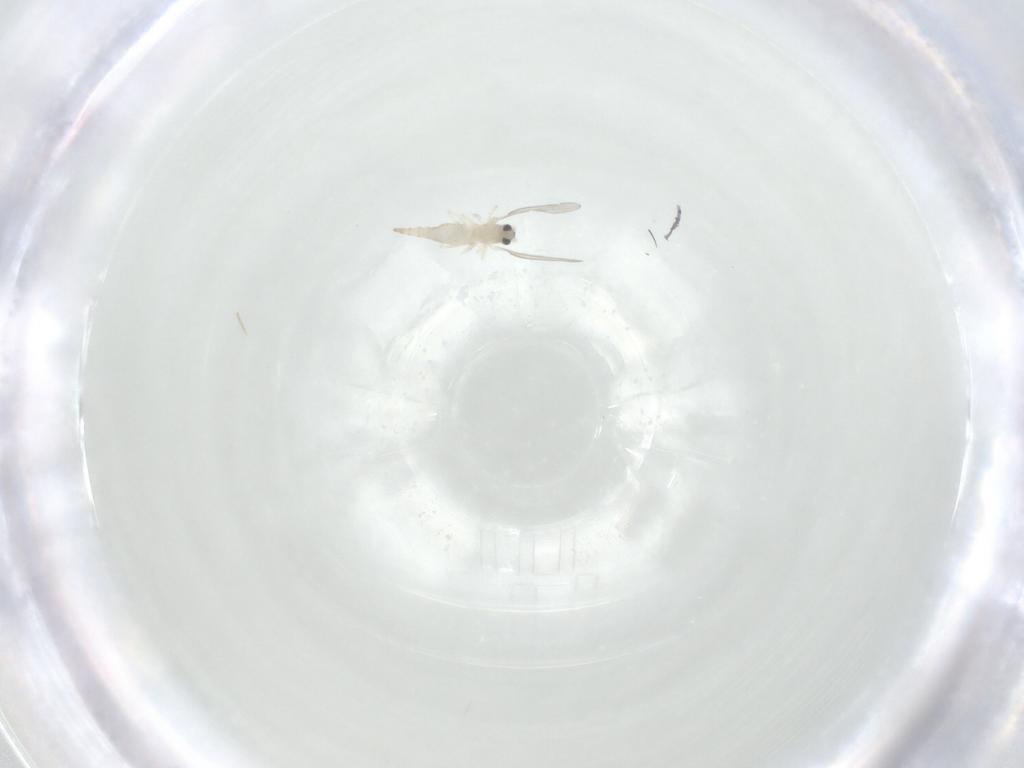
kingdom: Animalia
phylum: Arthropoda
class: Insecta
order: Diptera
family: Cecidomyiidae
